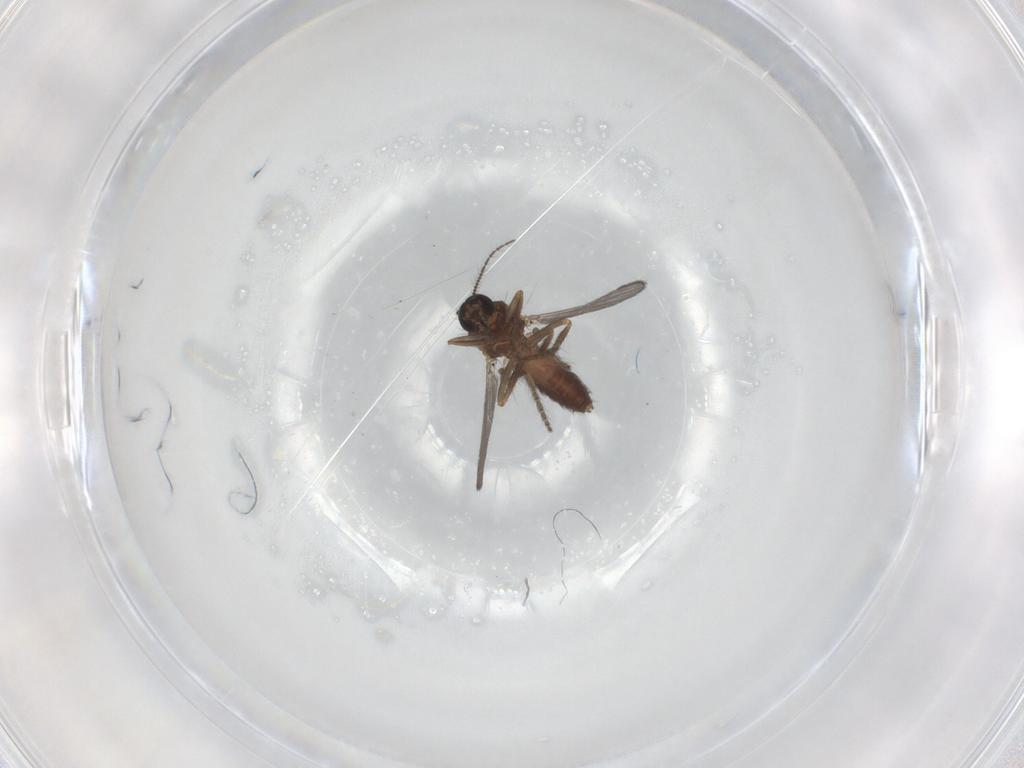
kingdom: Animalia
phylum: Arthropoda
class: Insecta
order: Diptera
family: Ceratopogonidae
